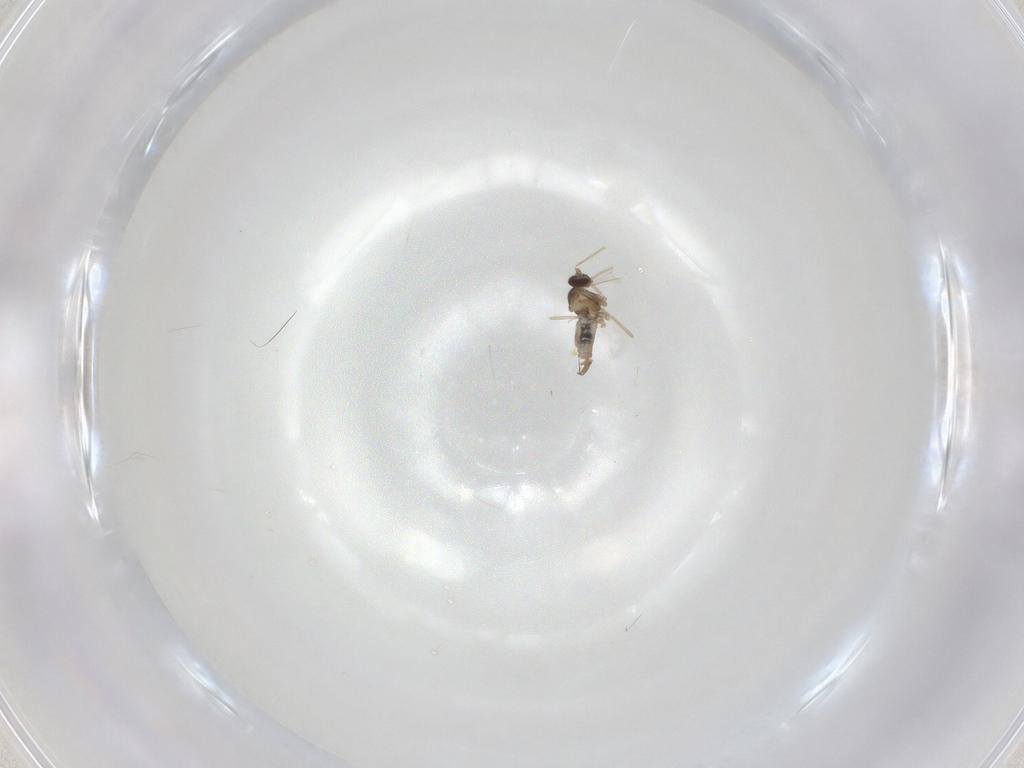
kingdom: Animalia
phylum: Arthropoda
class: Insecta
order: Diptera
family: Cecidomyiidae
